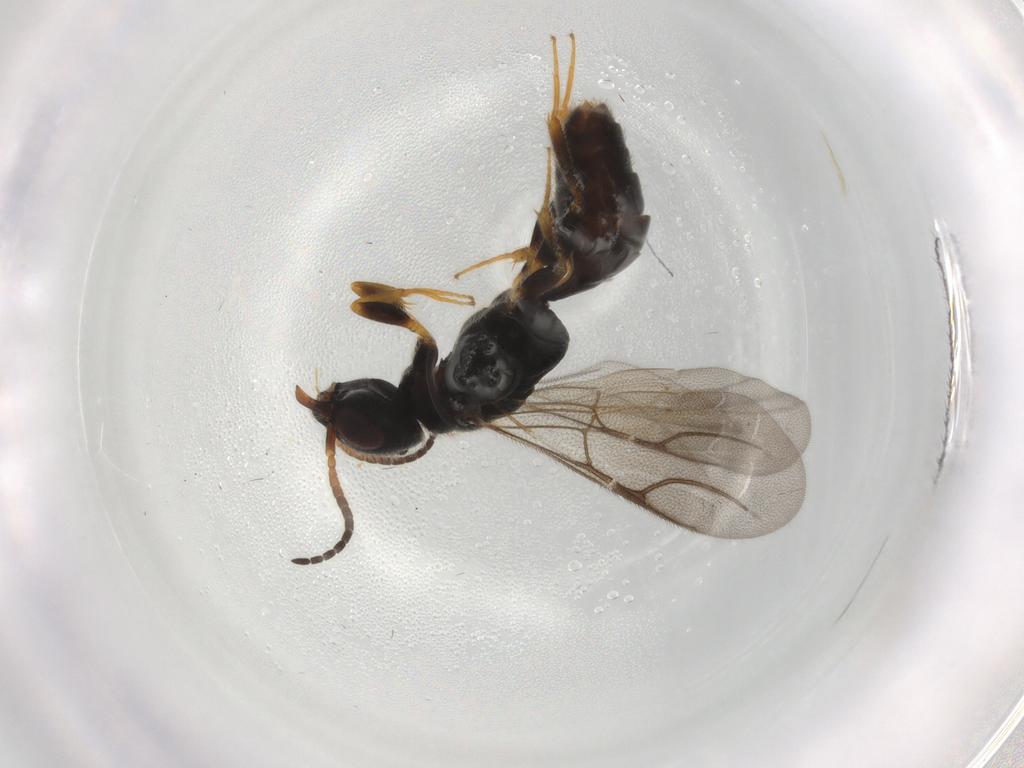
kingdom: Animalia
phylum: Arthropoda
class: Insecta
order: Hymenoptera
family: Bethylidae
